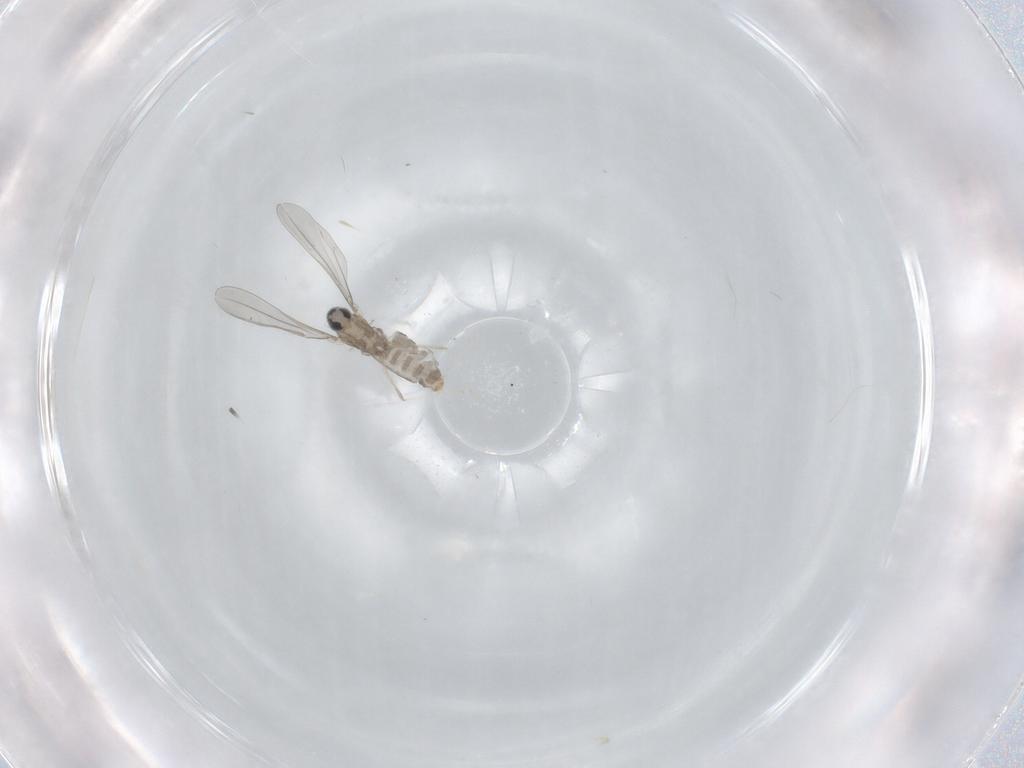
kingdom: Animalia
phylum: Arthropoda
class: Insecta
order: Diptera
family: Cecidomyiidae
